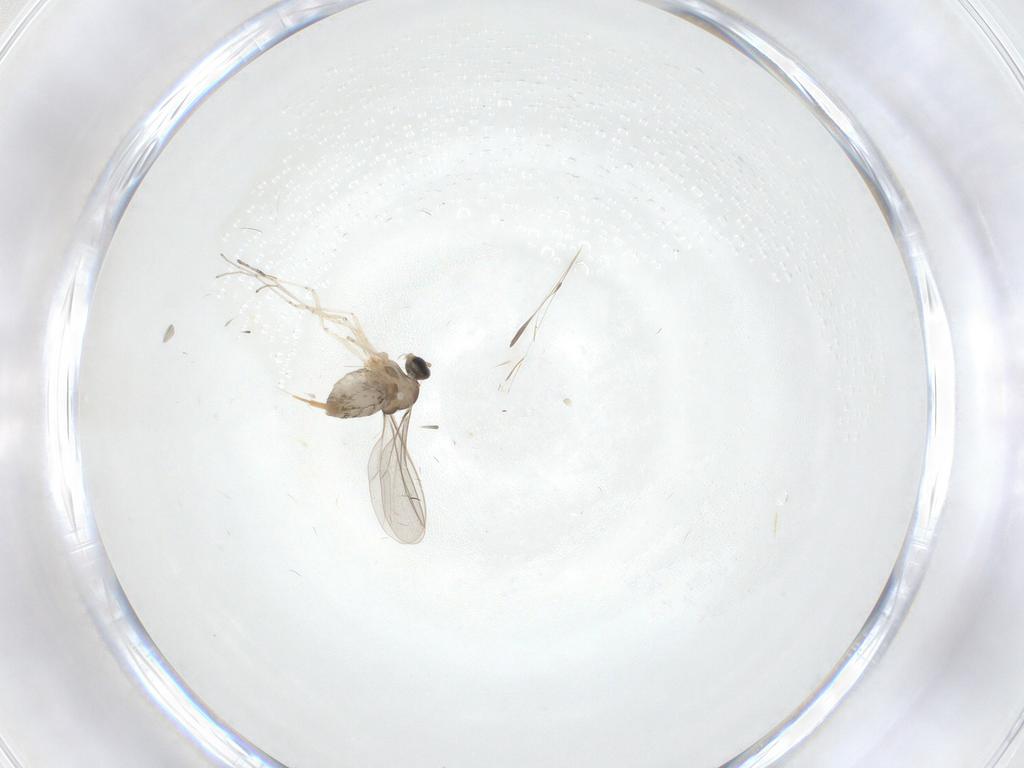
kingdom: Animalia
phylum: Arthropoda
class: Insecta
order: Diptera
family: Cecidomyiidae
